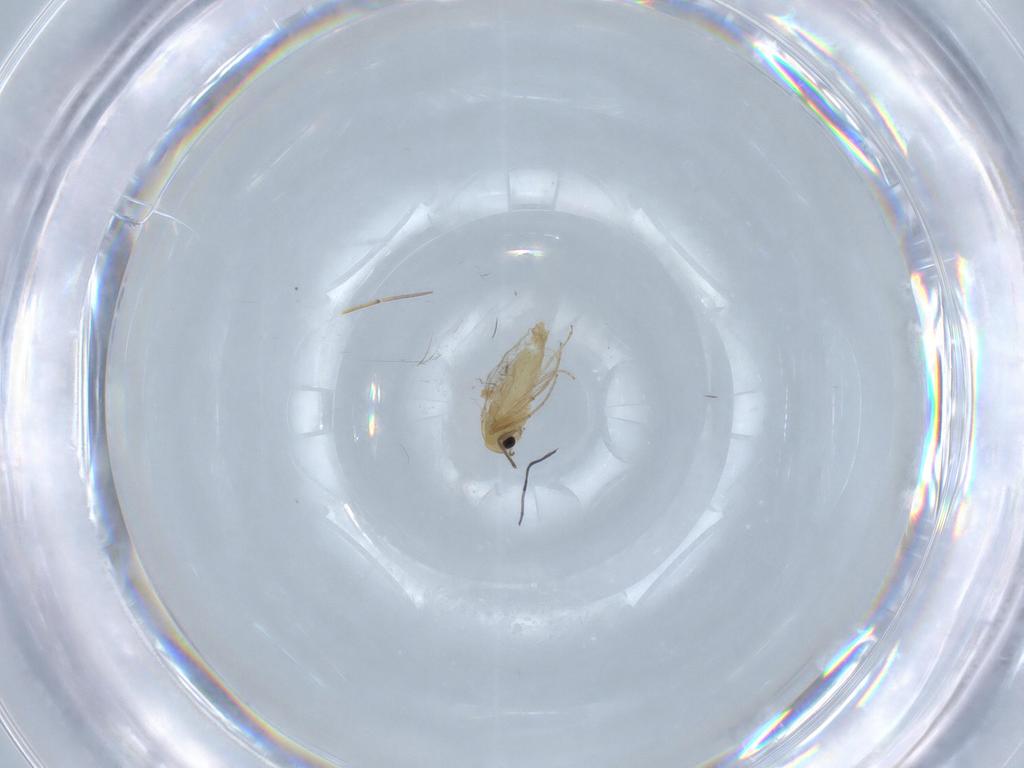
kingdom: Animalia
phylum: Arthropoda
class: Insecta
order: Diptera
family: Chironomidae
